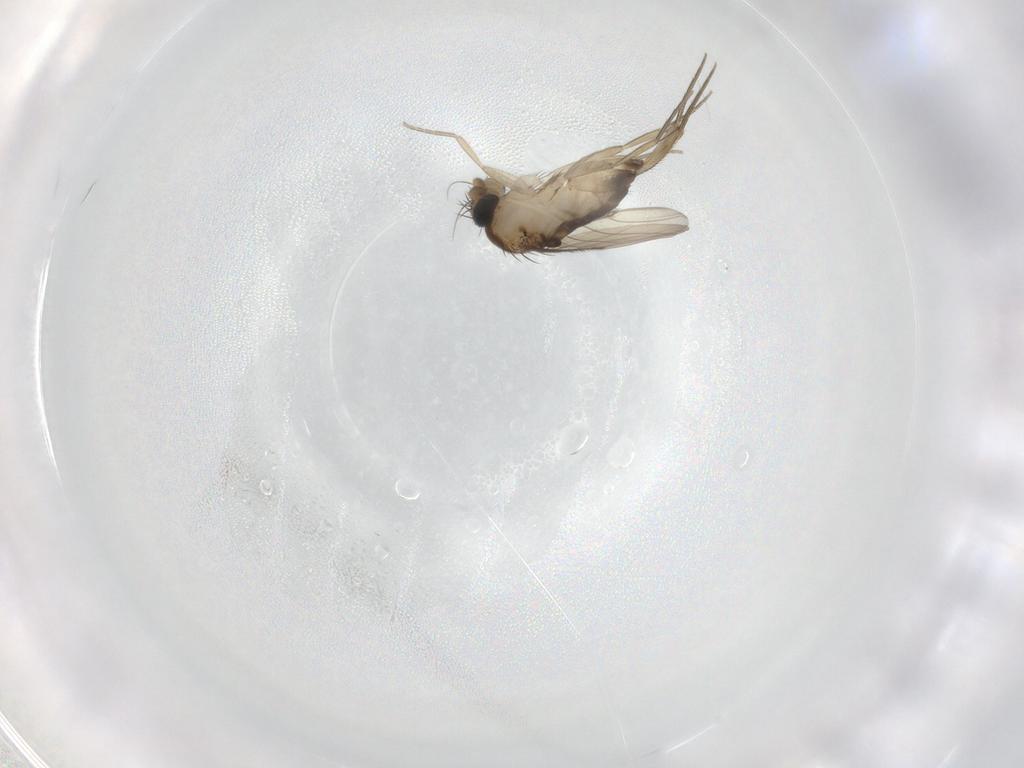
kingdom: Animalia
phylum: Arthropoda
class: Insecta
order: Diptera
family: Phoridae
